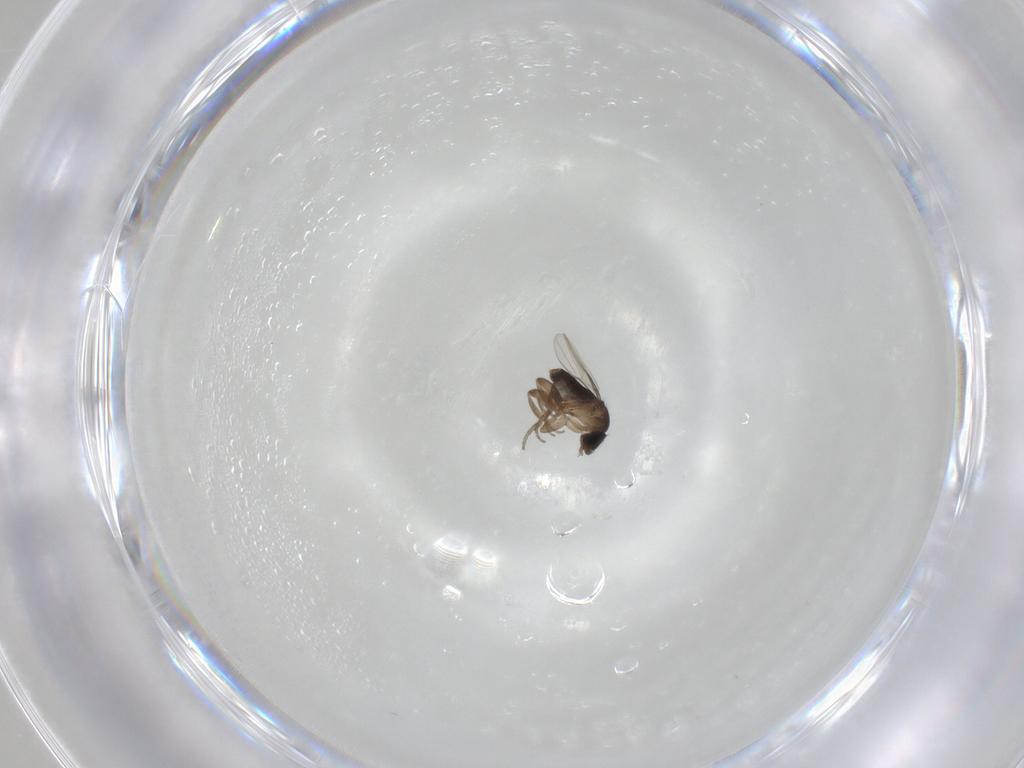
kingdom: Animalia
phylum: Arthropoda
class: Insecta
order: Diptera
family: Phoridae
